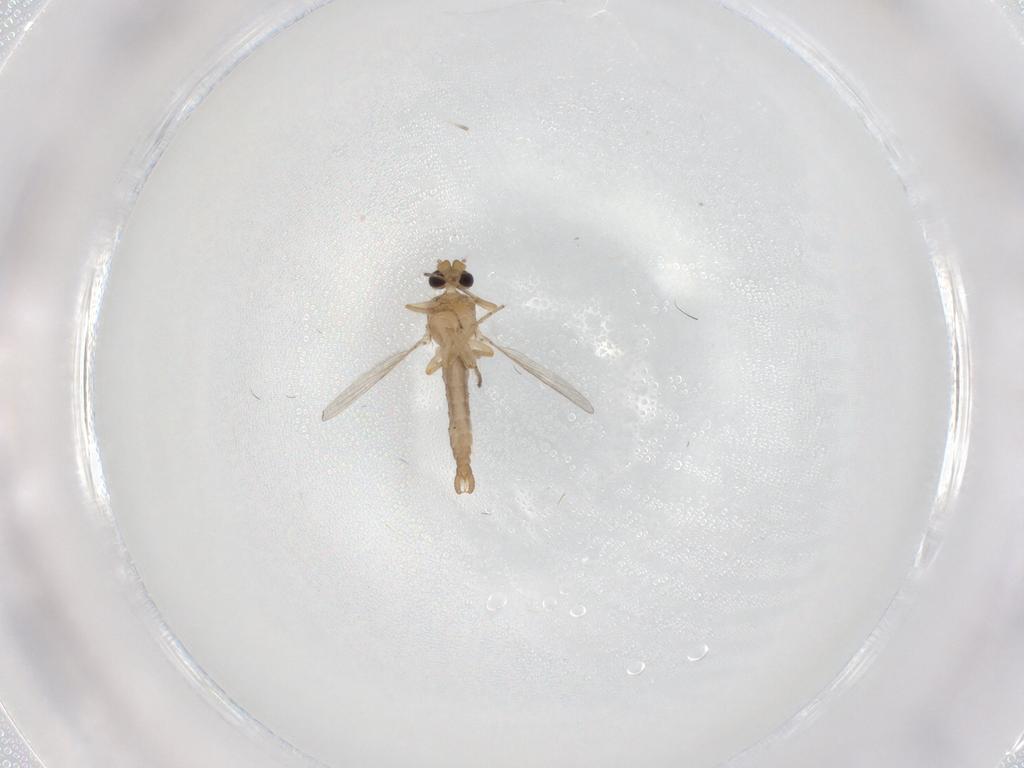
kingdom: Animalia
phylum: Arthropoda
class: Insecta
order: Diptera
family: Ceratopogonidae
